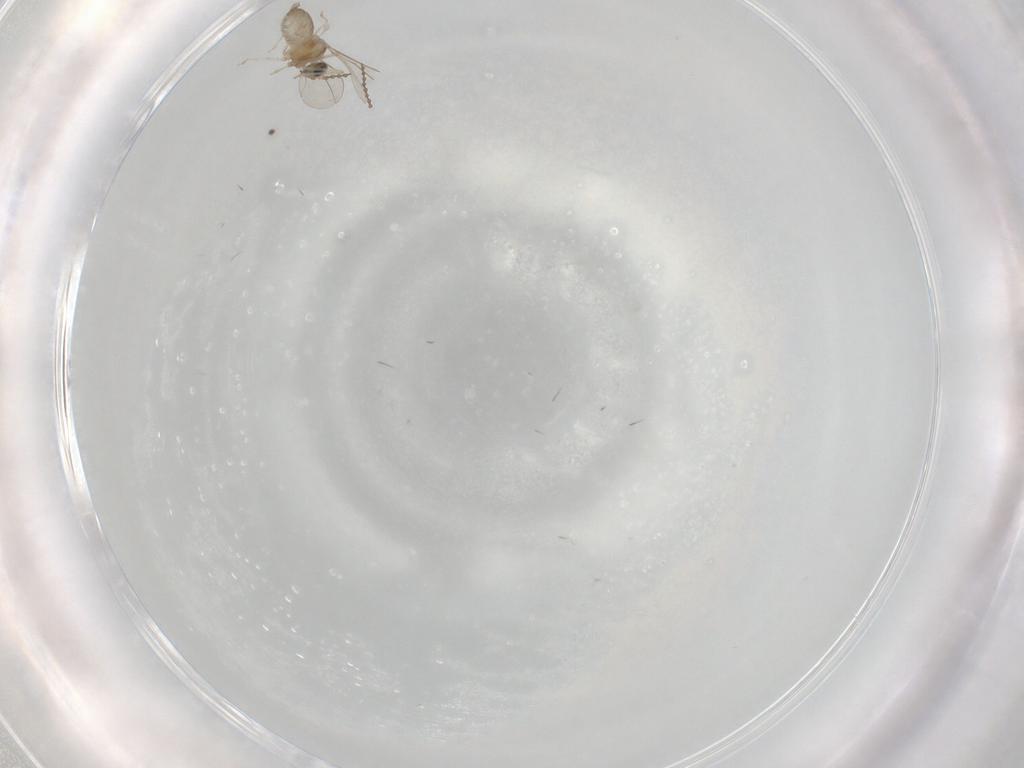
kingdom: Animalia
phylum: Arthropoda
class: Insecta
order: Diptera
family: Cecidomyiidae
